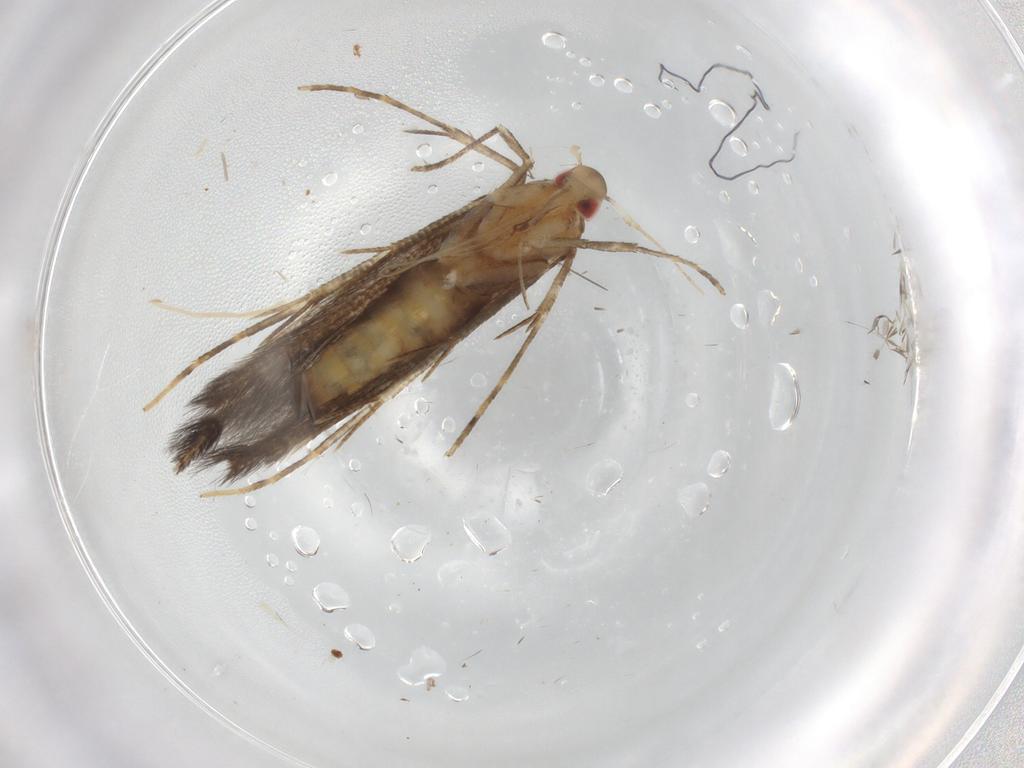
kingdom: Animalia
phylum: Arthropoda
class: Insecta
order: Lepidoptera
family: Cosmopterigidae
